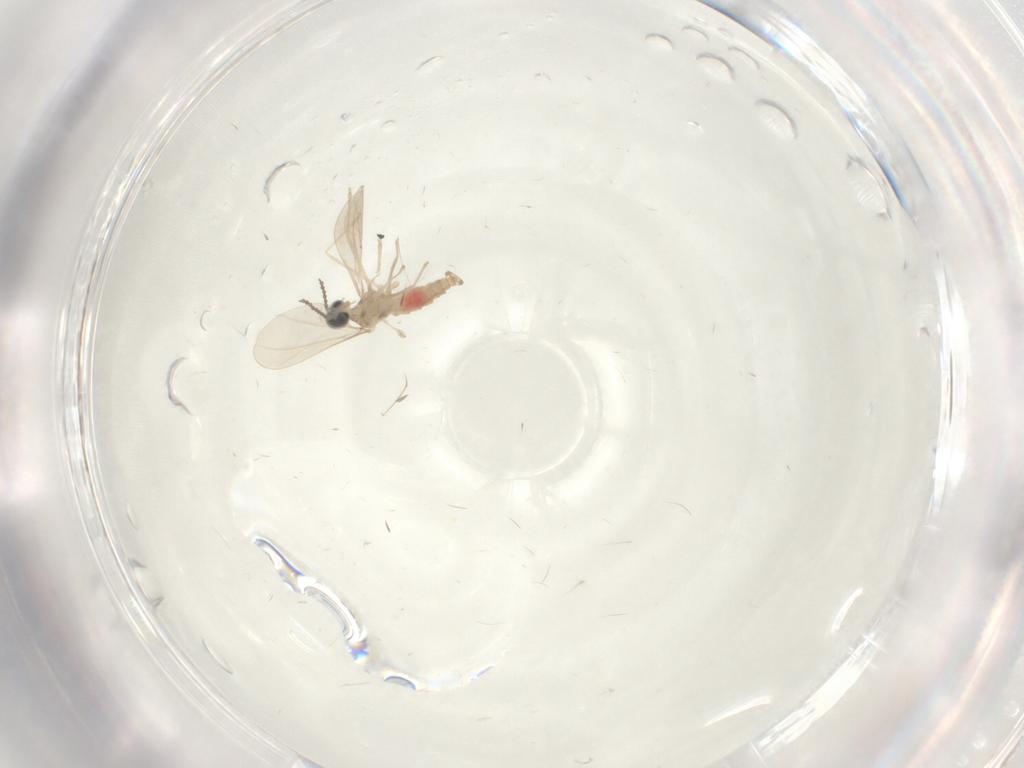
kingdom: Animalia
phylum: Arthropoda
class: Insecta
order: Diptera
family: Cecidomyiidae
